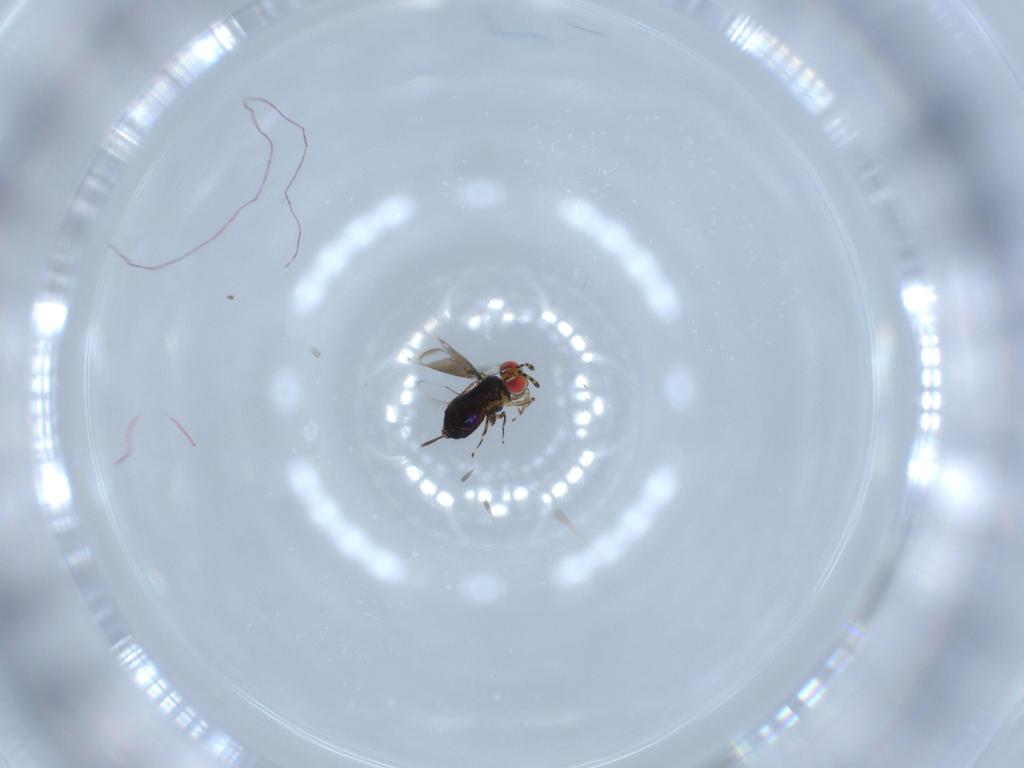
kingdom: Animalia
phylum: Arthropoda
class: Insecta
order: Hymenoptera
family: Azotidae
